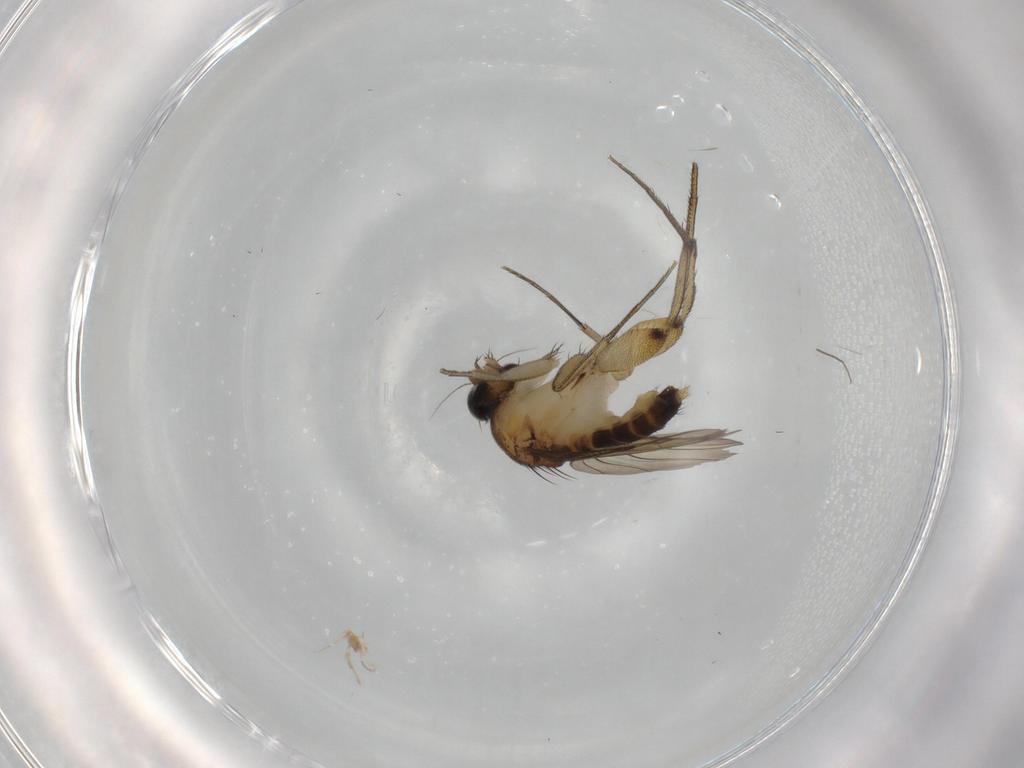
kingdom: Animalia
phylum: Arthropoda
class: Insecta
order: Diptera
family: Phoridae
